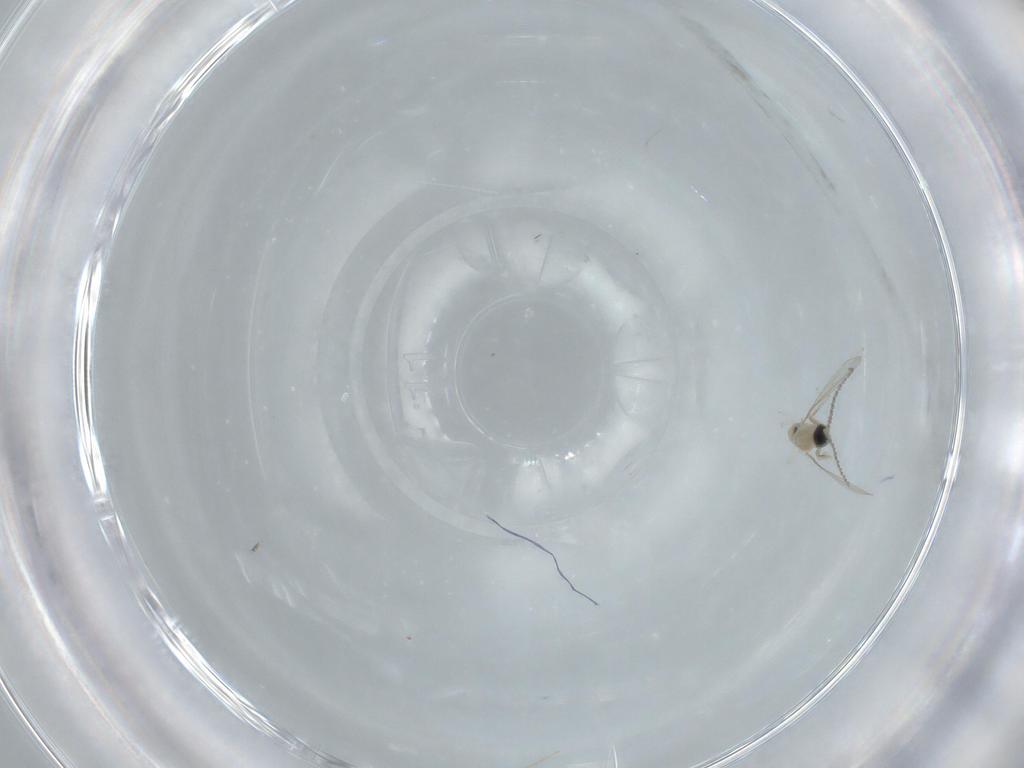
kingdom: Animalia
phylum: Arthropoda
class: Insecta
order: Diptera
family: Cecidomyiidae
